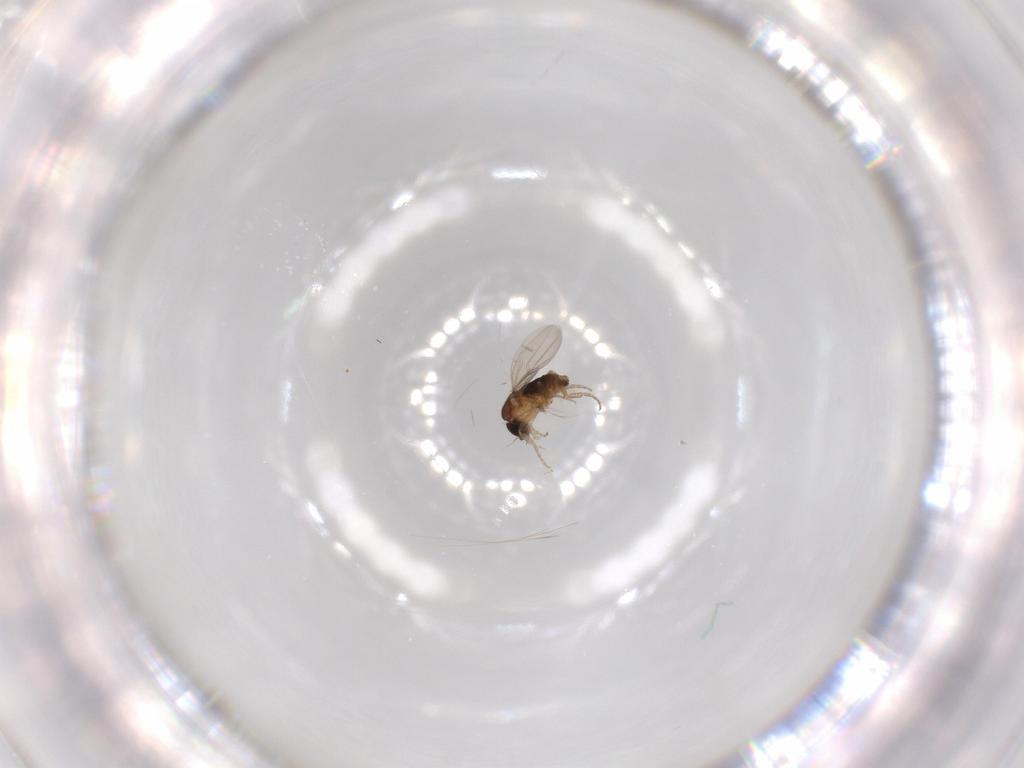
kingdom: Animalia
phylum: Arthropoda
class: Insecta
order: Diptera
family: Phoridae
